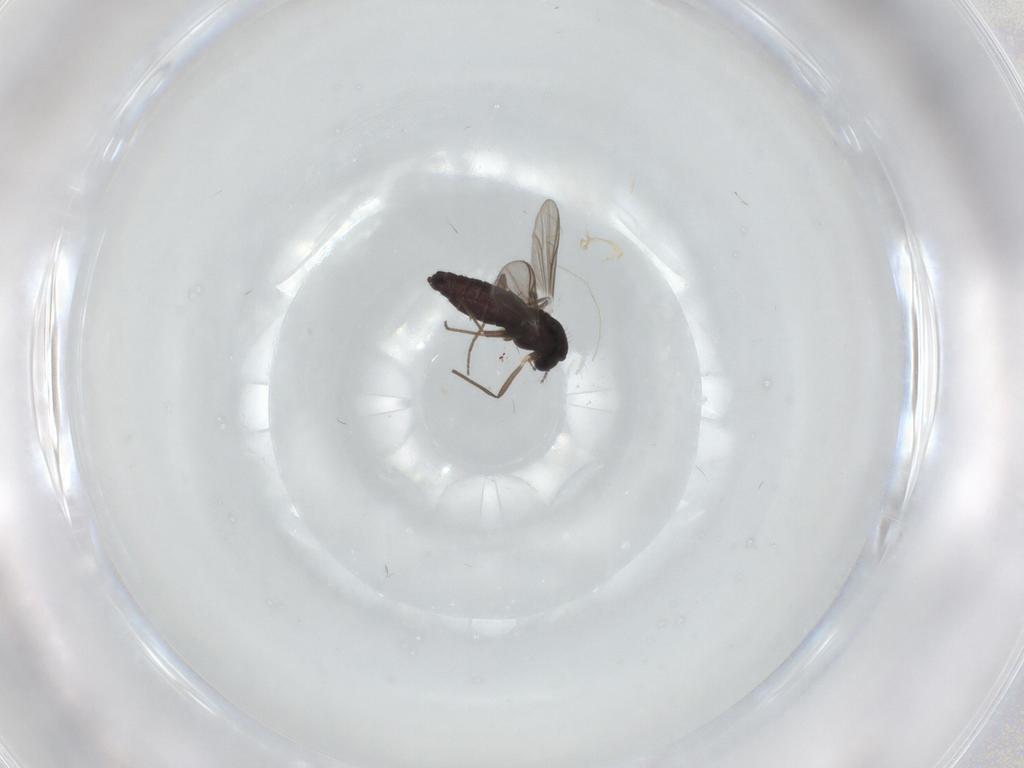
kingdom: Animalia
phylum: Arthropoda
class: Insecta
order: Diptera
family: Chironomidae
